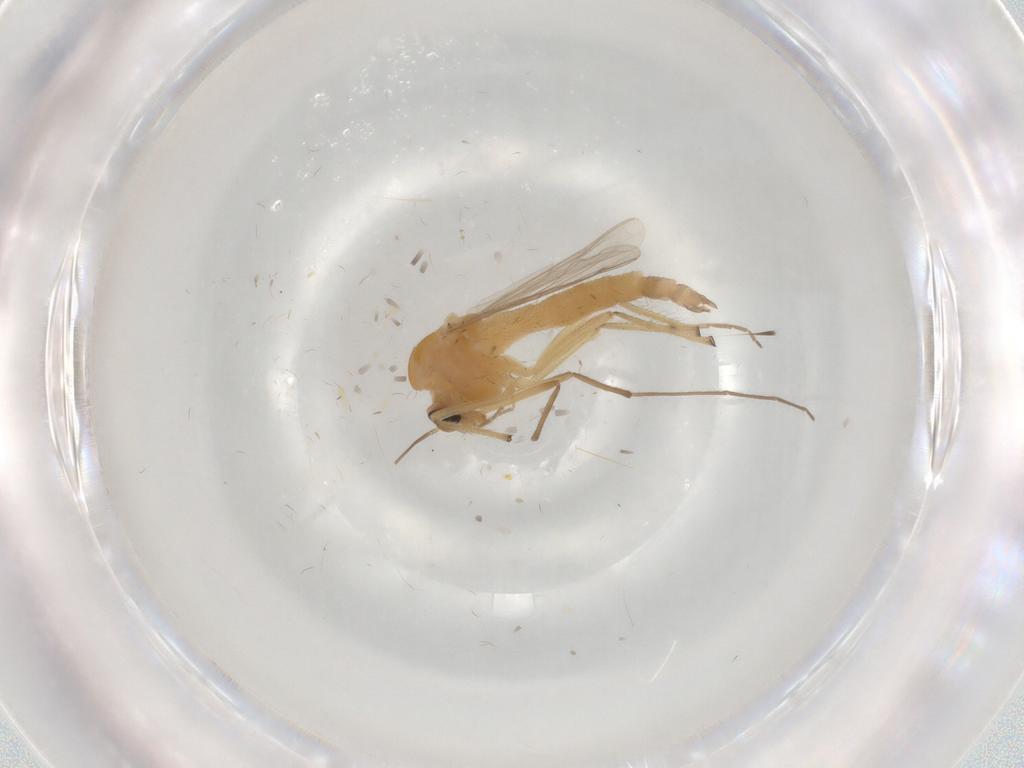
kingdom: Animalia
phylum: Arthropoda
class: Insecta
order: Diptera
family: Chironomidae
